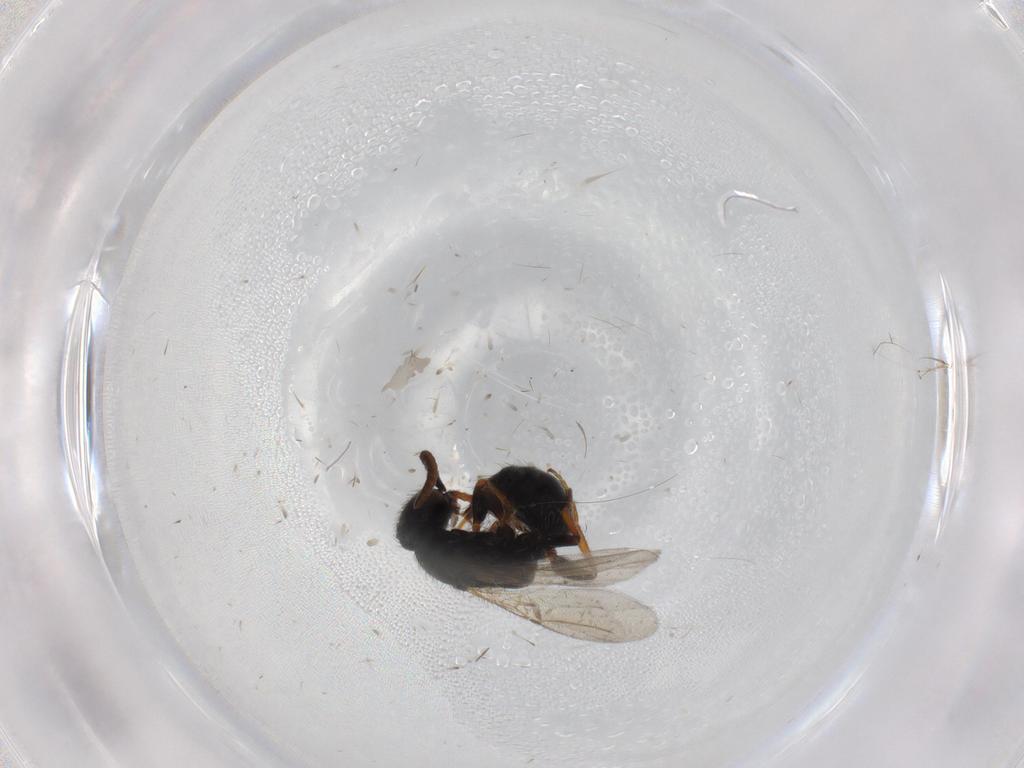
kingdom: Animalia
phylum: Arthropoda
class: Insecta
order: Hymenoptera
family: Bethylidae
